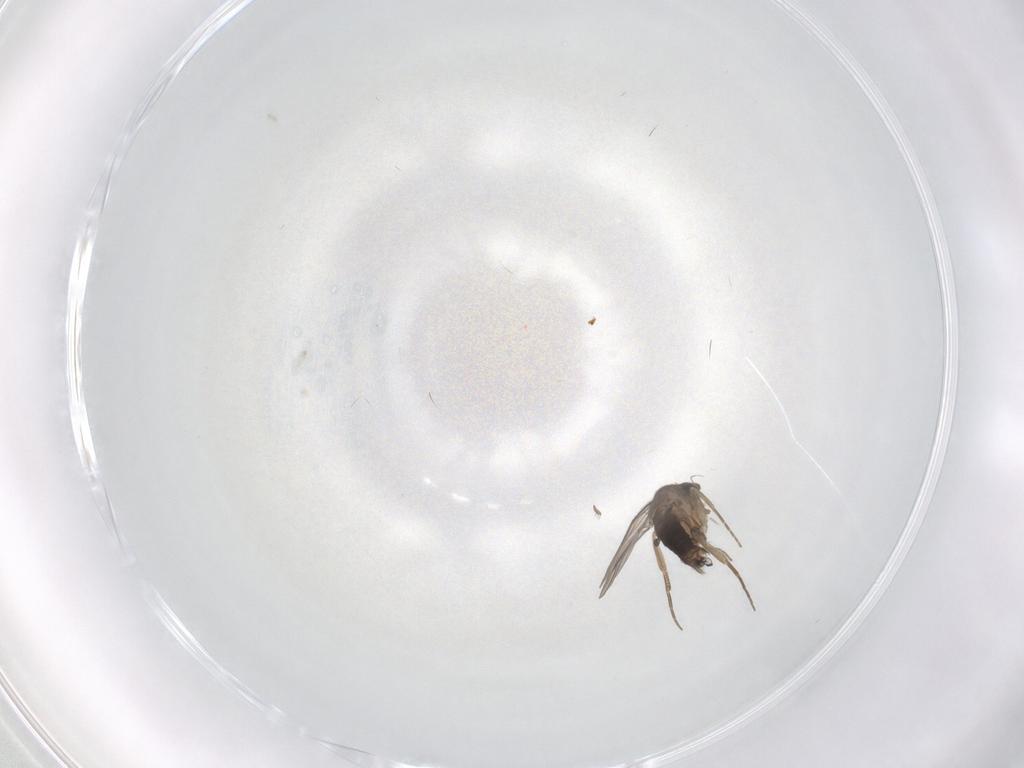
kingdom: Animalia
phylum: Arthropoda
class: Insecta
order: Diptera
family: Phoridae
